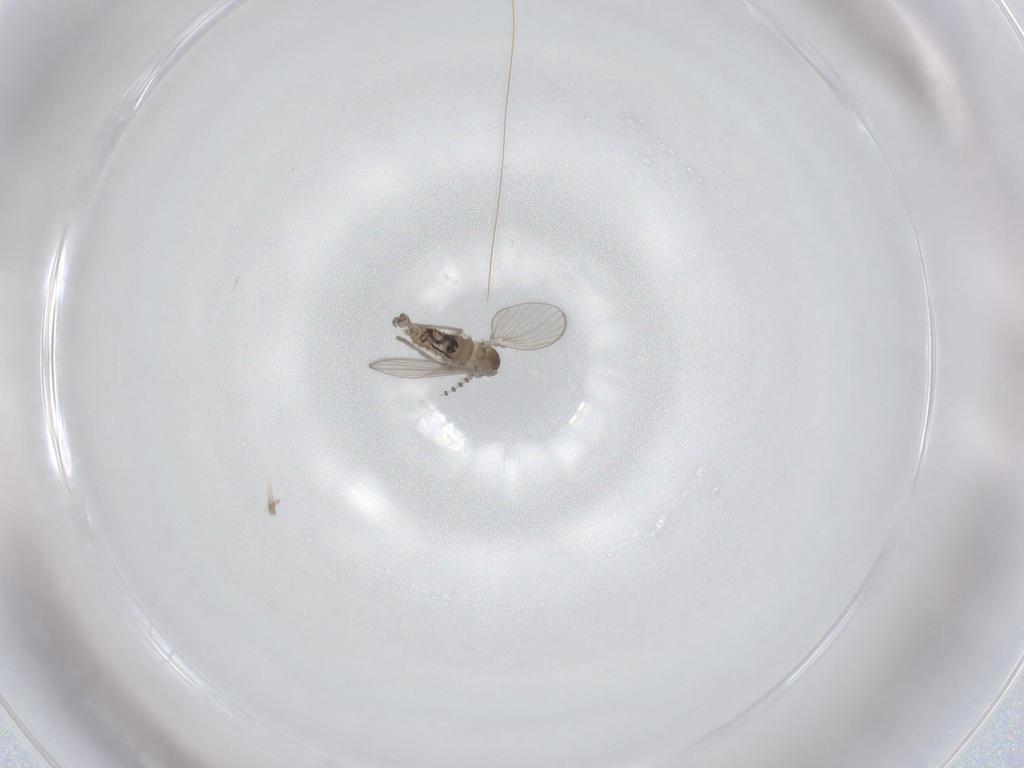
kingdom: Animalia
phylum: Arthropoda
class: Insecta
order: Diptera
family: Psychodidae
